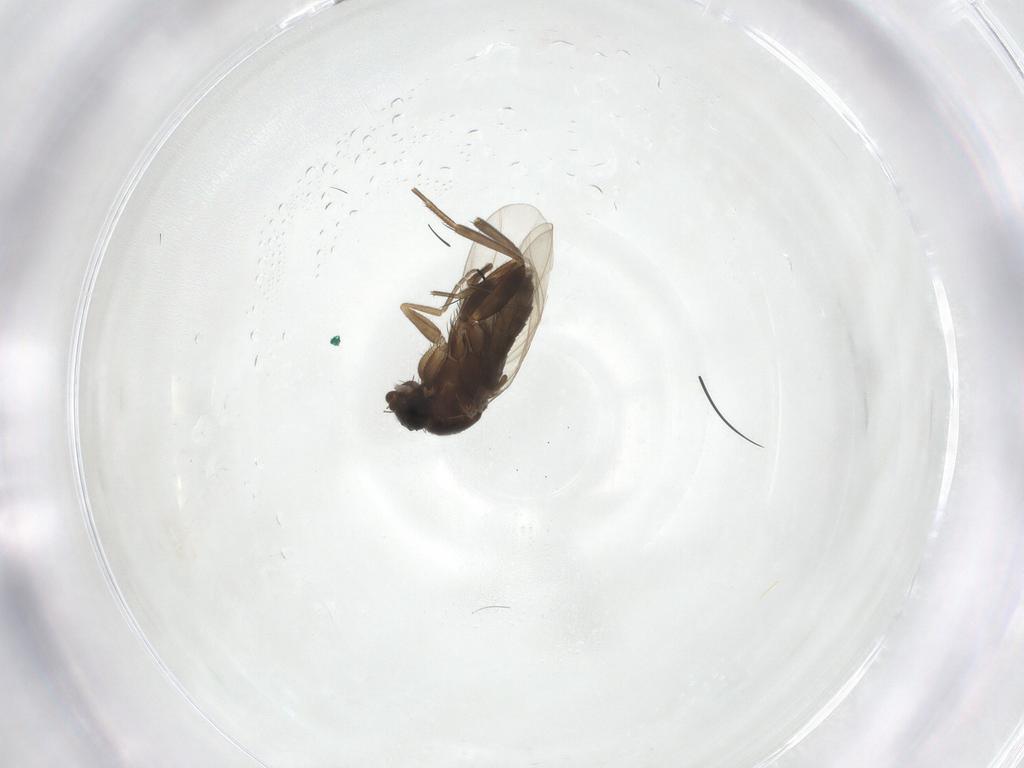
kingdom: Animalia
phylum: Arthropoda
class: Insecta
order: Diptera
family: Phoridae
